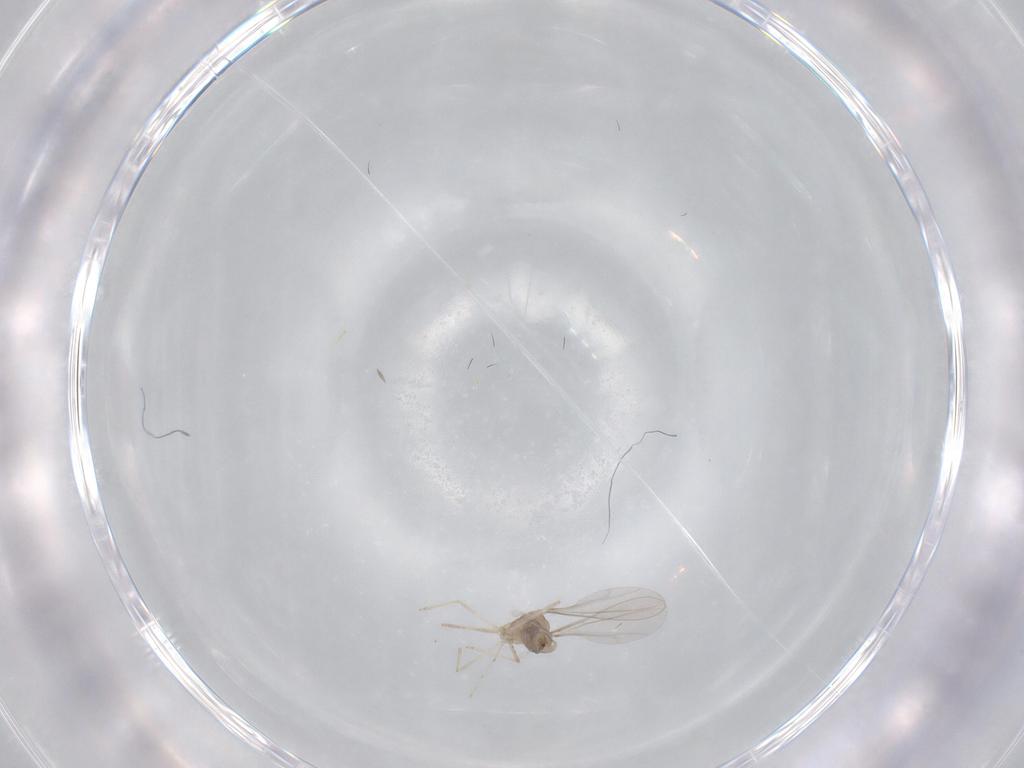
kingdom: Animalia
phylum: Arthropoda
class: Insecta
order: Diptera
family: Cecidomyiidae
